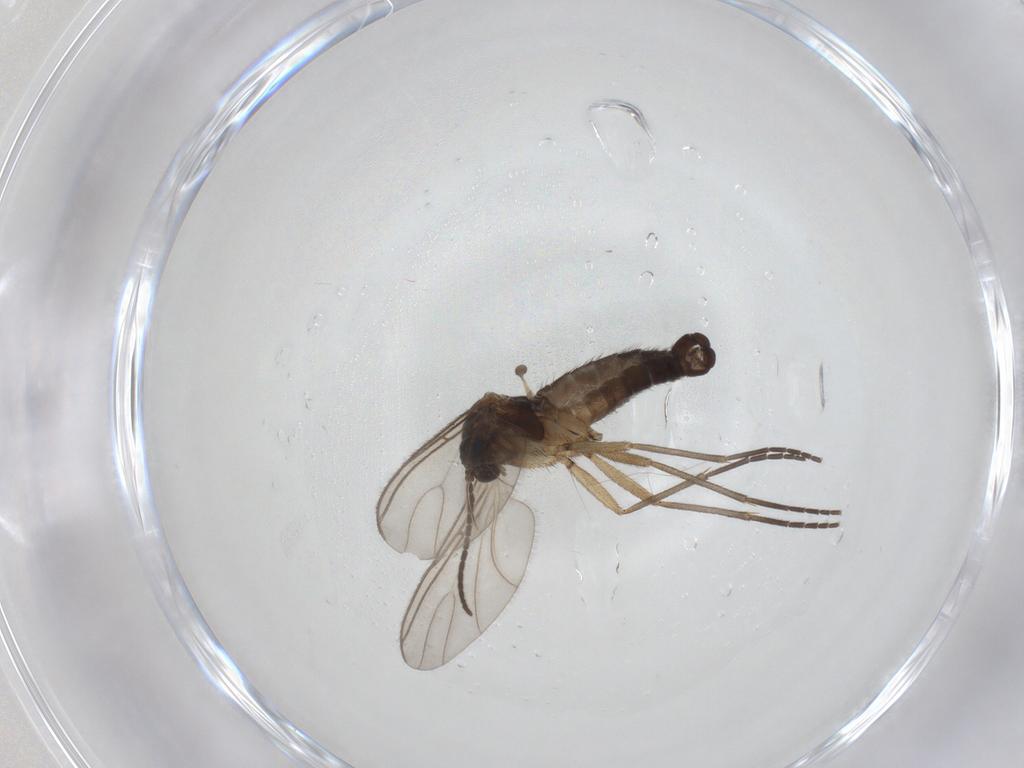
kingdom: Animalia
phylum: Arthropoda
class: Insecta
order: Diptera
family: Sciaridae
